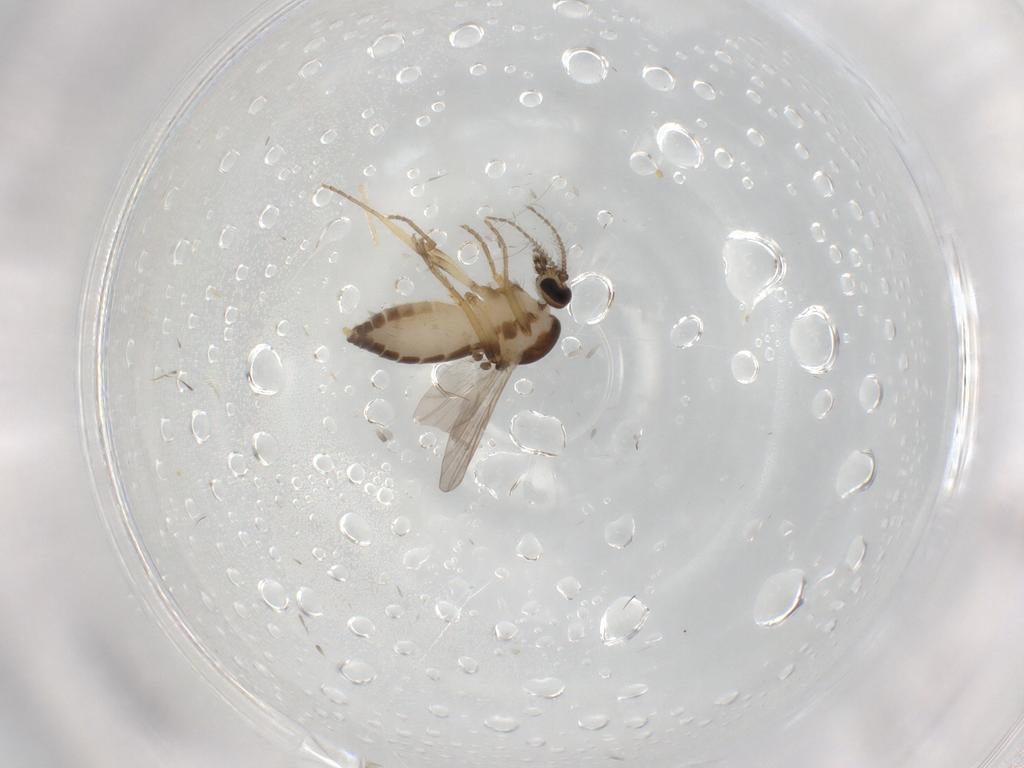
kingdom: Animalia
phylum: Arthropoda
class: Insecta
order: Diptera
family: Ceratopogonidae
